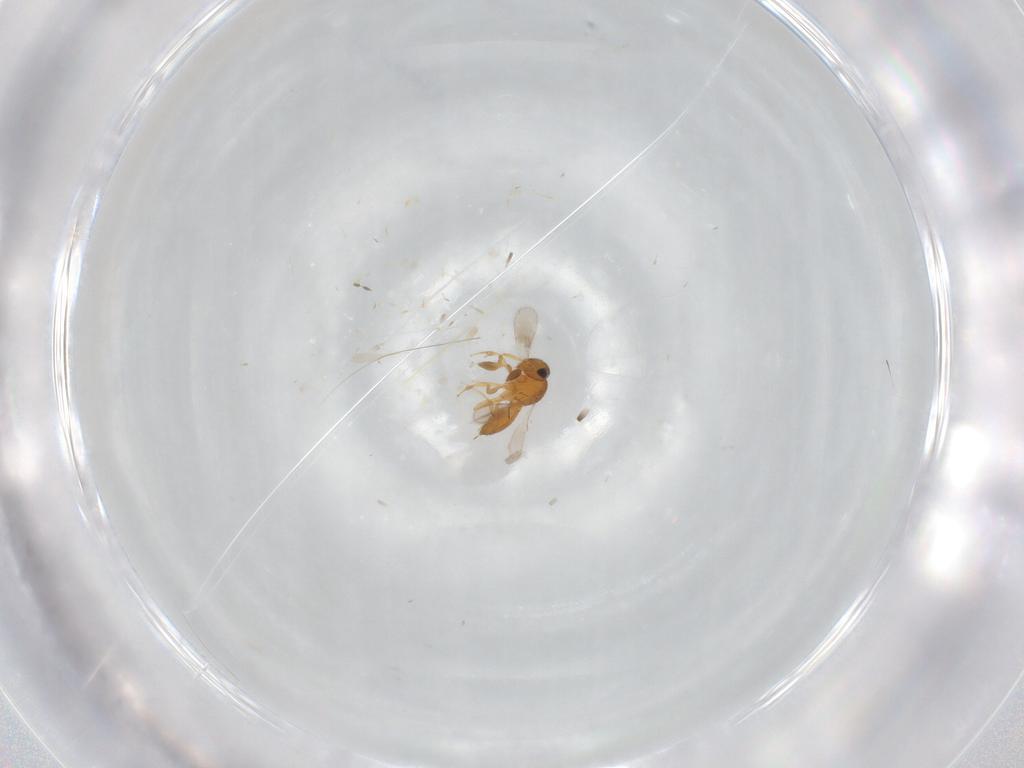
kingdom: Animalia
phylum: Arthropoda
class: Insecta
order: Hymenoptera
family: Scelionidae
